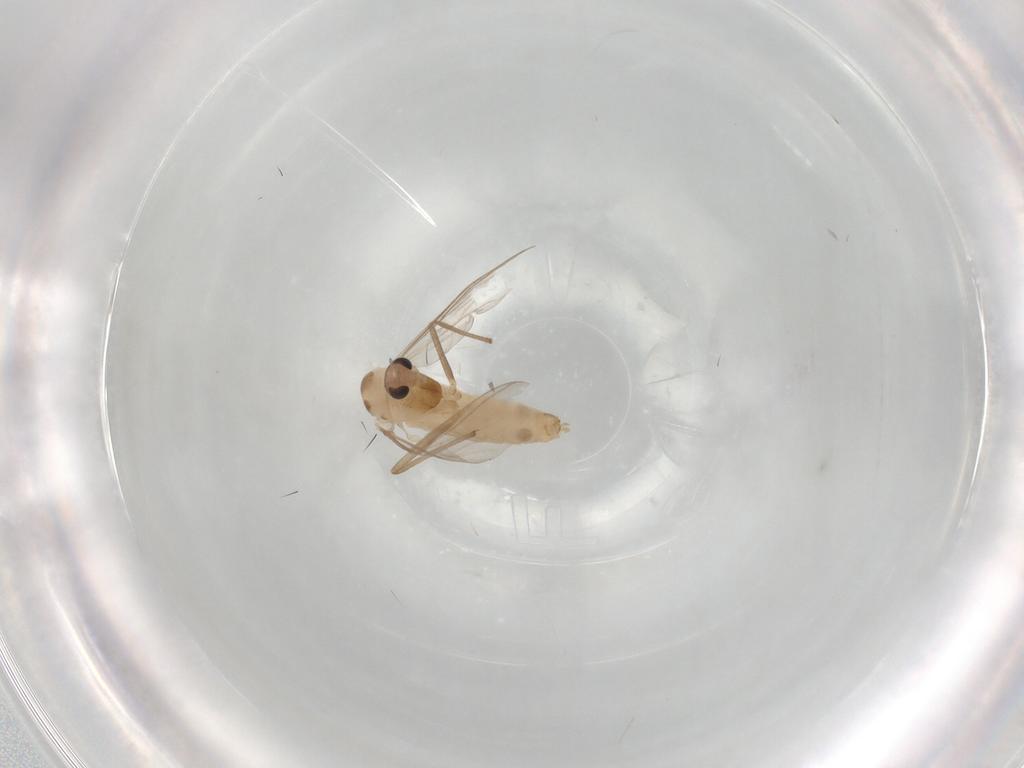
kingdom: Animalia
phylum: Arthropoda
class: Insecta
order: Diptera
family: Chironomidae
